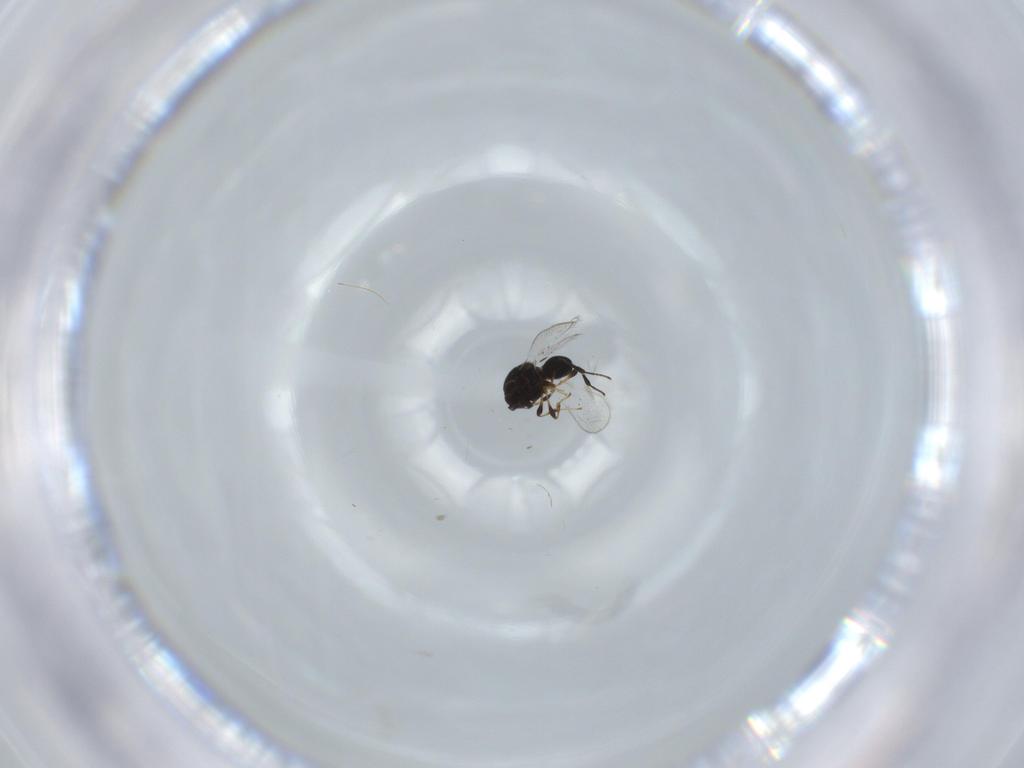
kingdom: Animalia
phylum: Arthropoda
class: Insecta
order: Hymenoptera
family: Platygastridae
